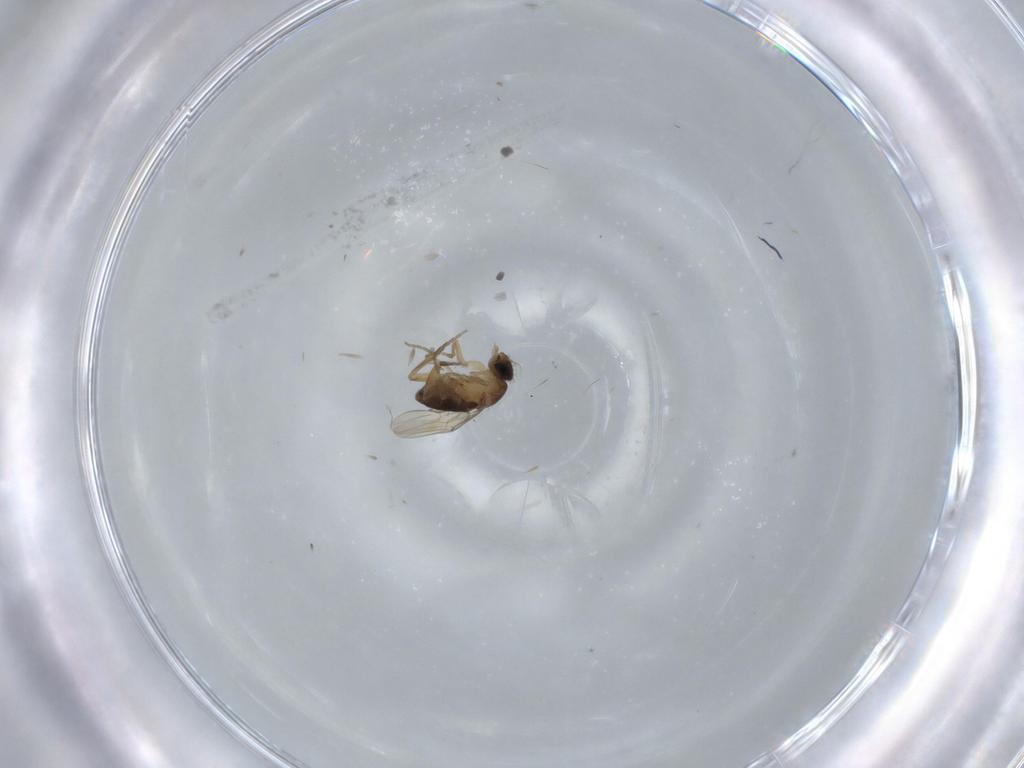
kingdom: Animalia
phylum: Arthropoda
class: Insecta
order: Diptera
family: Phoridae
